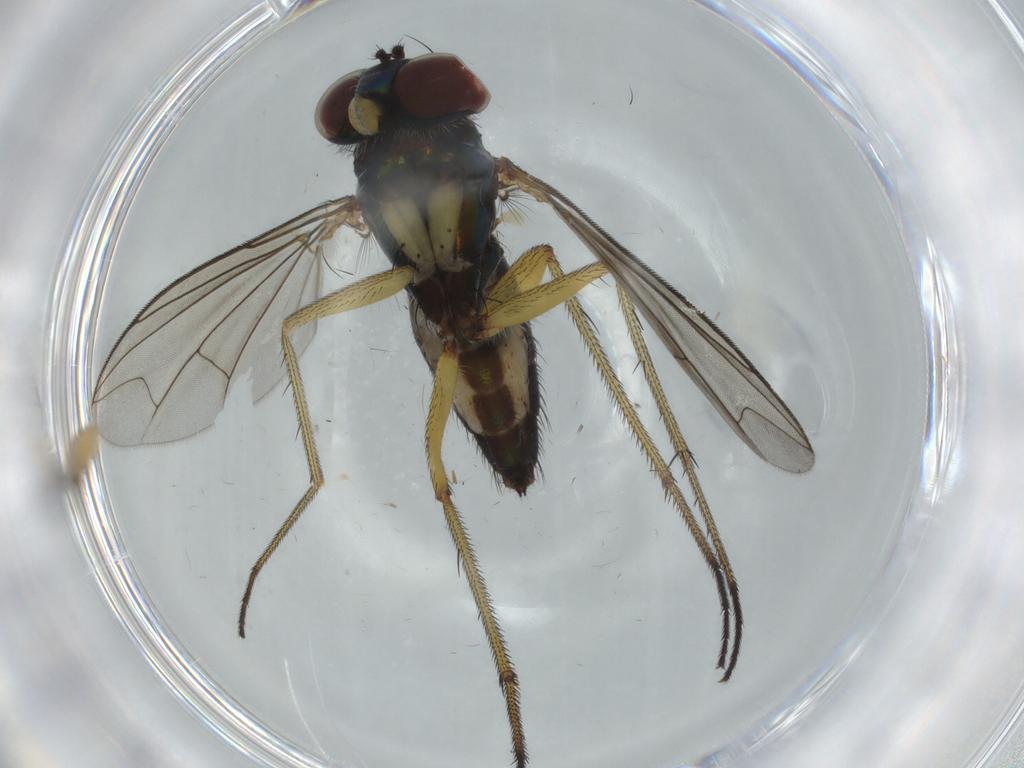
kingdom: Animalia
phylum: Arthropoda
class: Insecta
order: Diptera
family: Dolichopodidae
